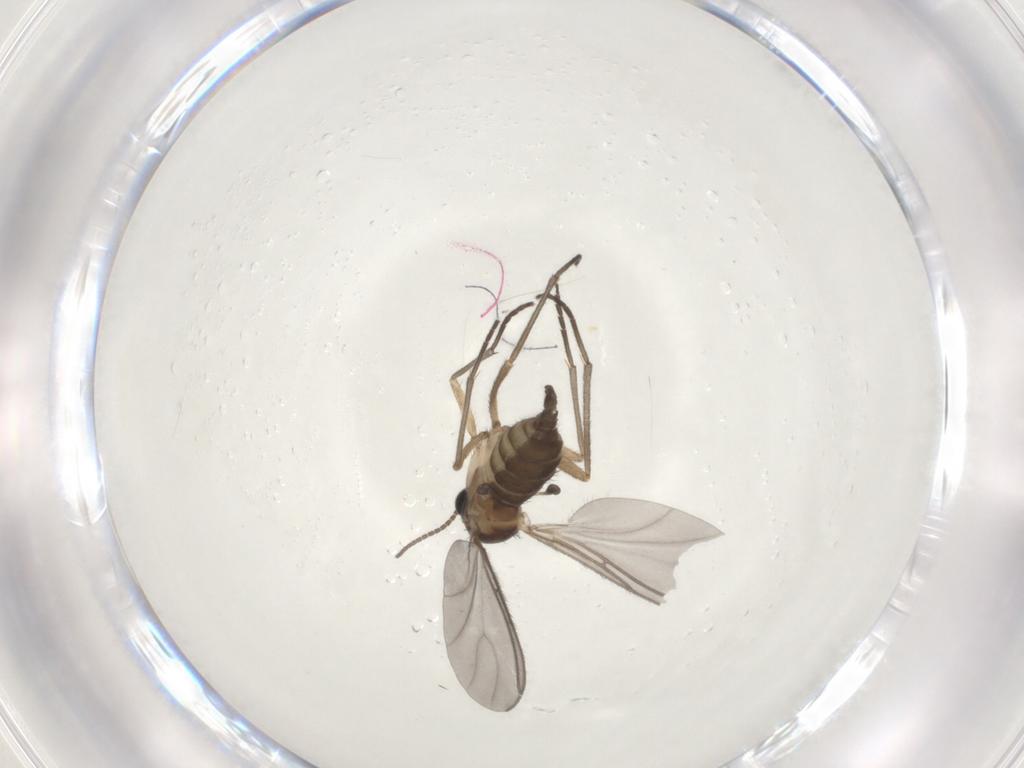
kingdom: Animalia
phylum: Arthropoda
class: Insecta
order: Diptera
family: Sciaridae
